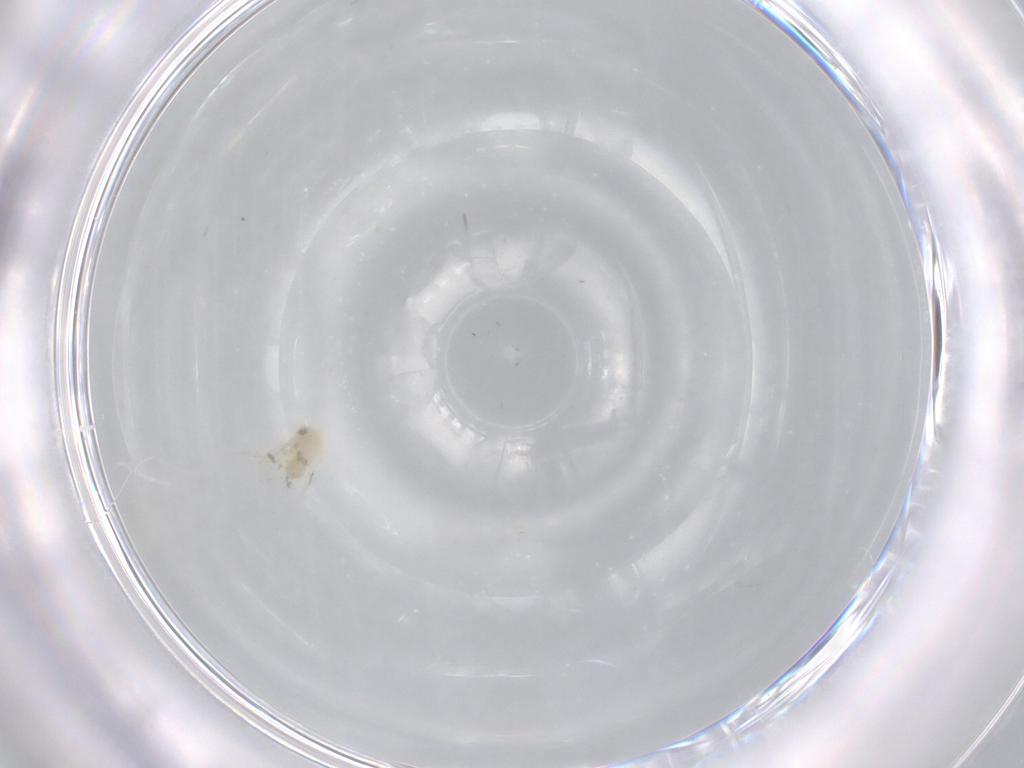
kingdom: Animalia
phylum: Arthropoda
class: Insecta
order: Hemiptera
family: Aleyrodidae
